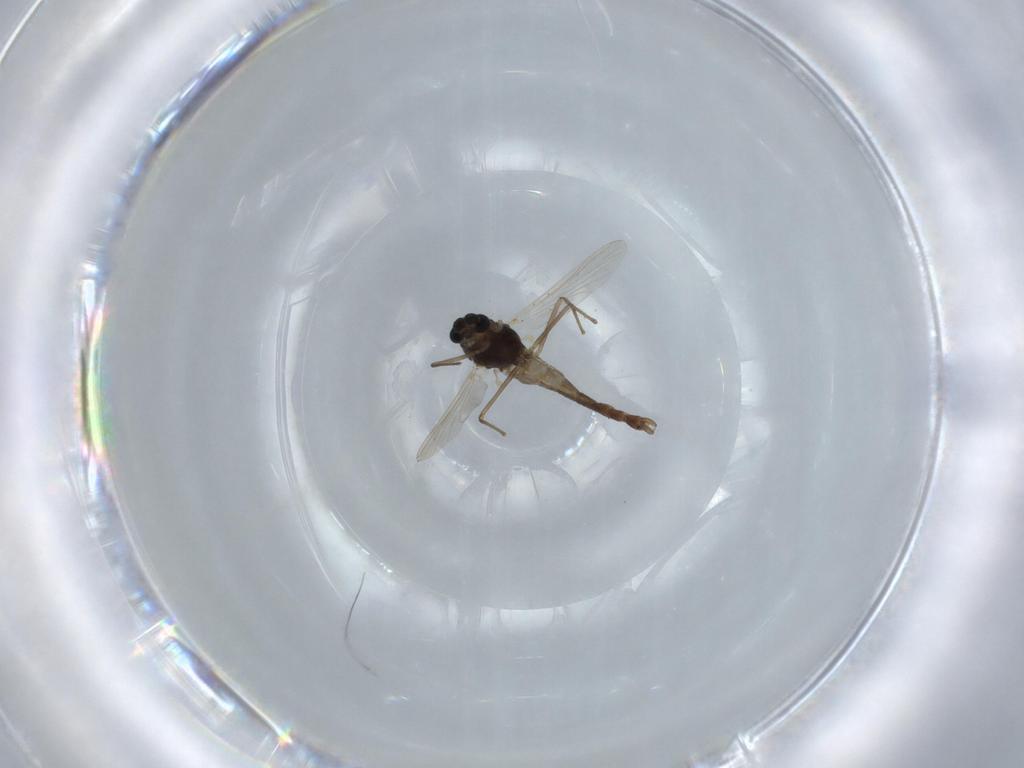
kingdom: Animalia
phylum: Arthropoda
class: Insecta
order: Diptera
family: Chironomidae
